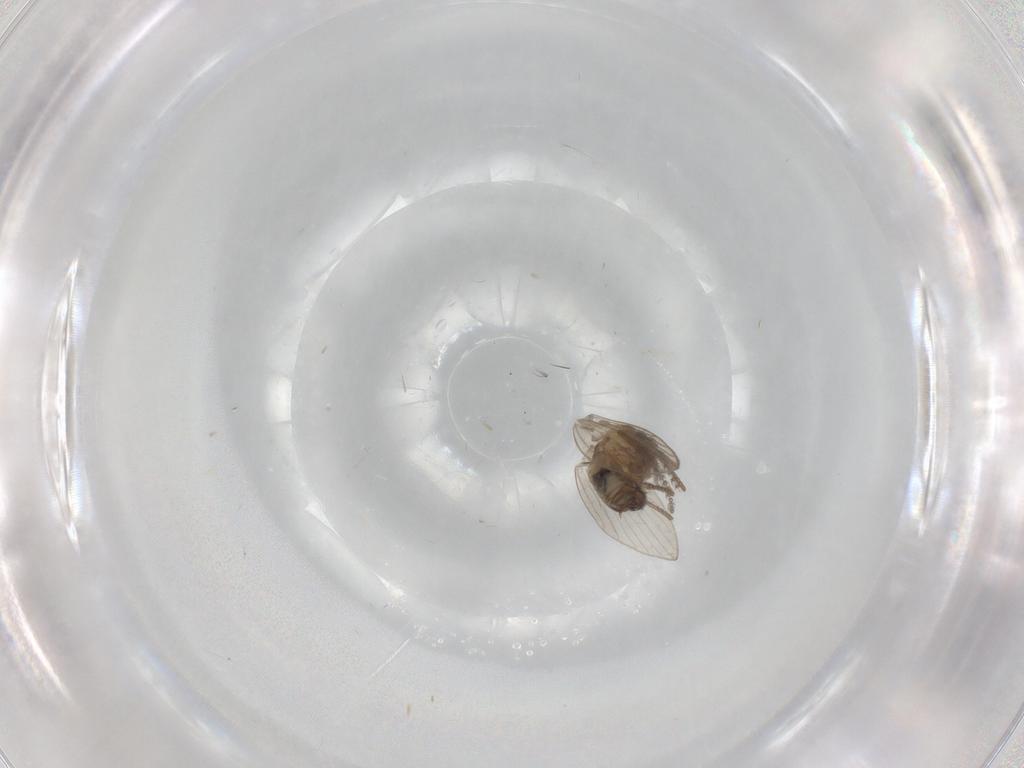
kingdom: Animalia
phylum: Arthropoda
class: Insecta
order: Diptera
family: Psychodidae
